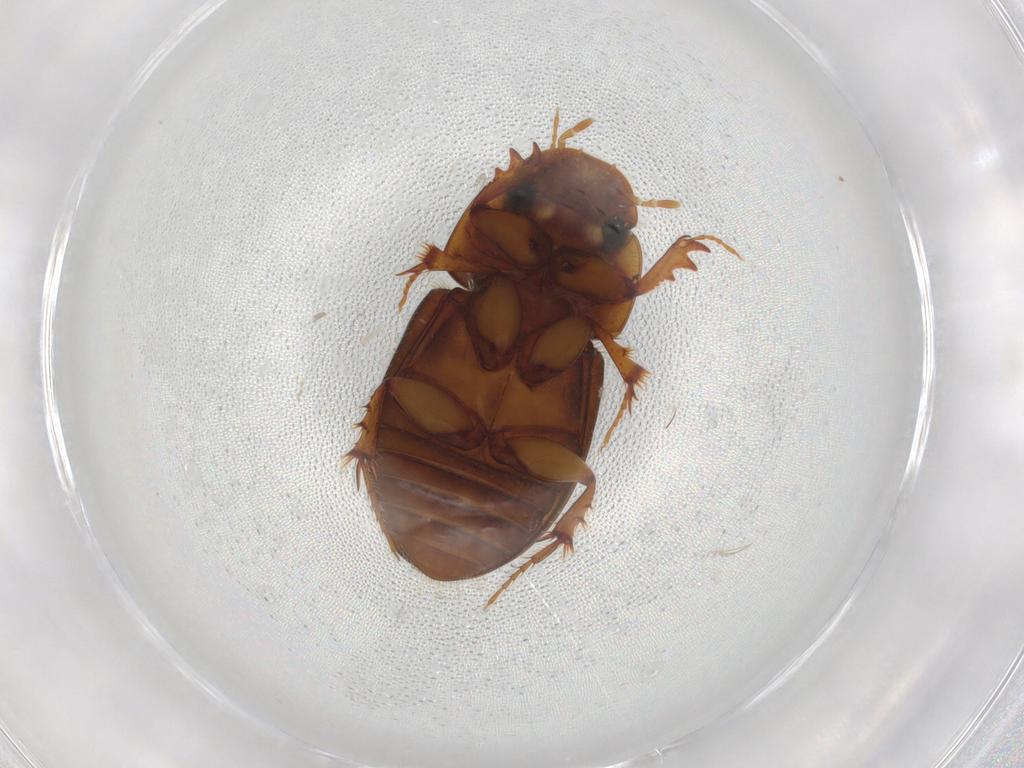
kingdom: Animalia
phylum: Arthropoda
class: Insecta
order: Coleoptera
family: Scarabaeidae
